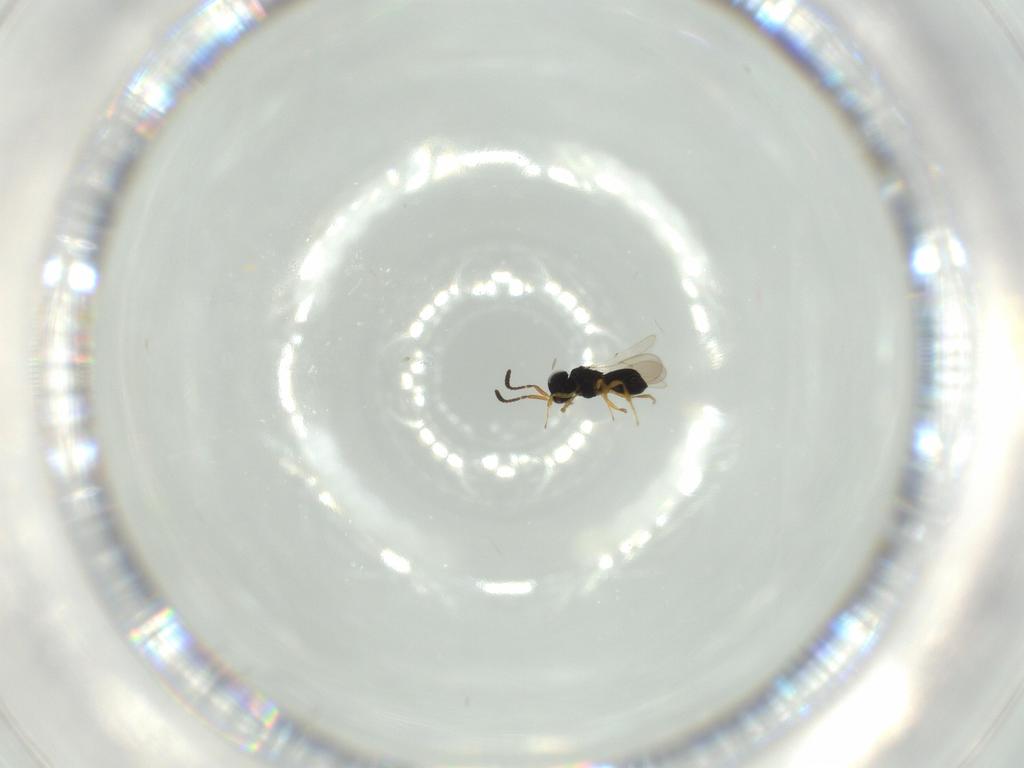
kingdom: Animalia
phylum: Arthropoda
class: Insecta
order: Hymenoptera
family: Scelionidae
